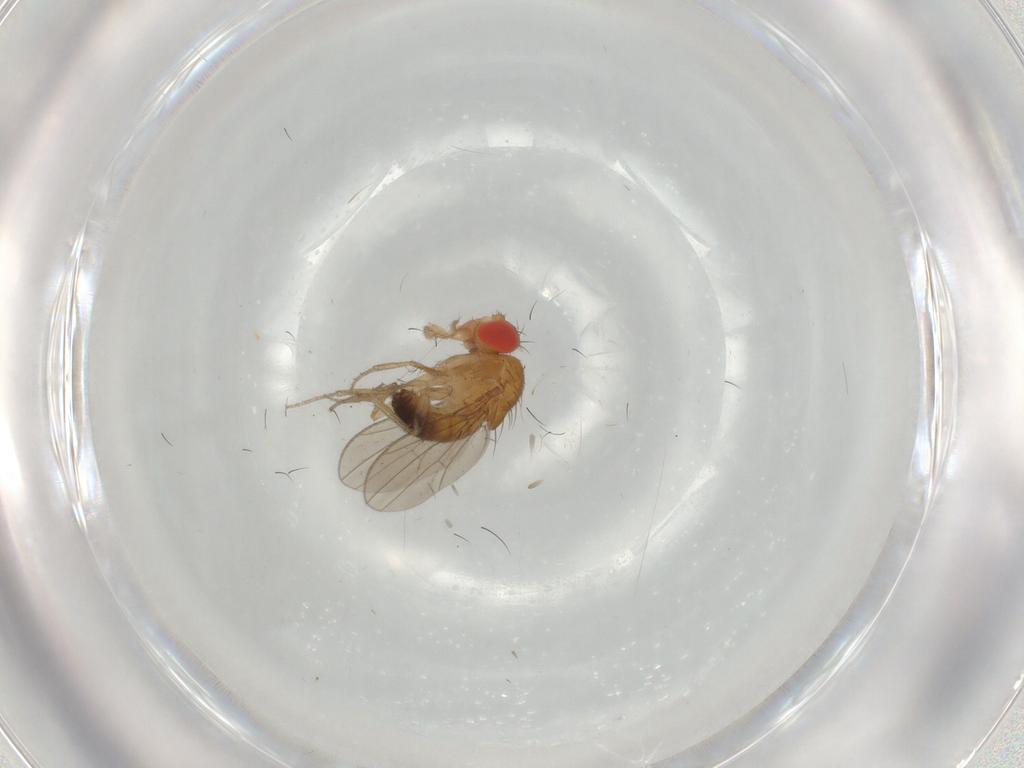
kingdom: Animalia
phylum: Arthropoda
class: Insecta
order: Diptera
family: Drosophilidae
